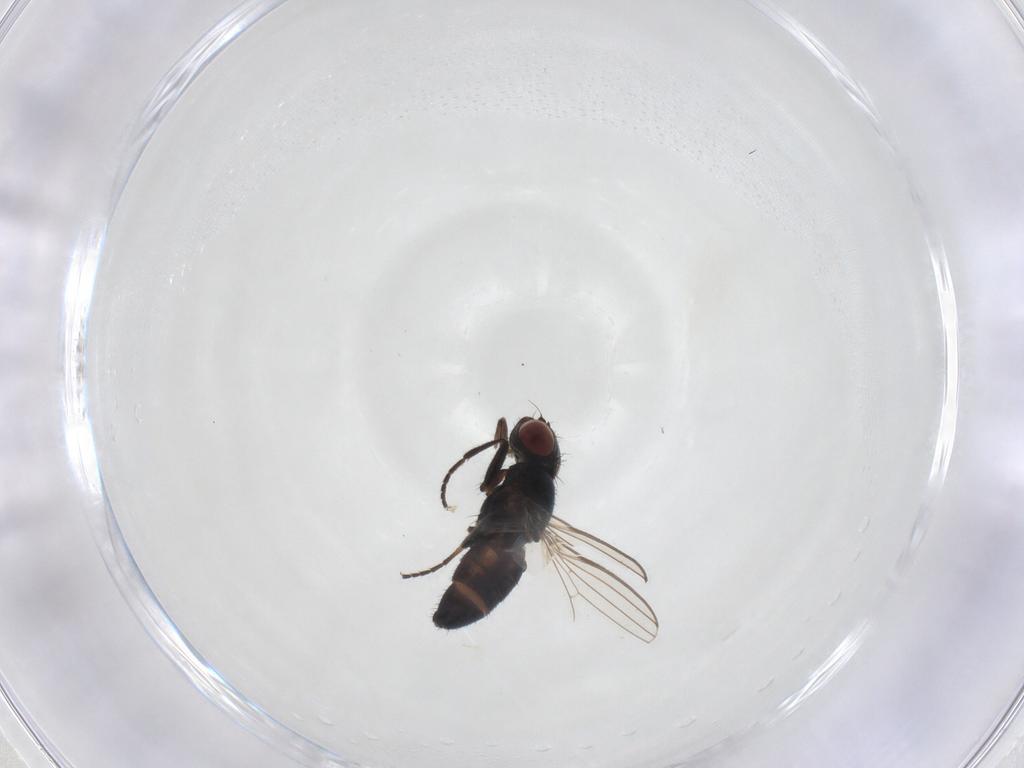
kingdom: Animalia
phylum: Arthropoda
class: Insecta
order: Diptera
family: Milichiidae
